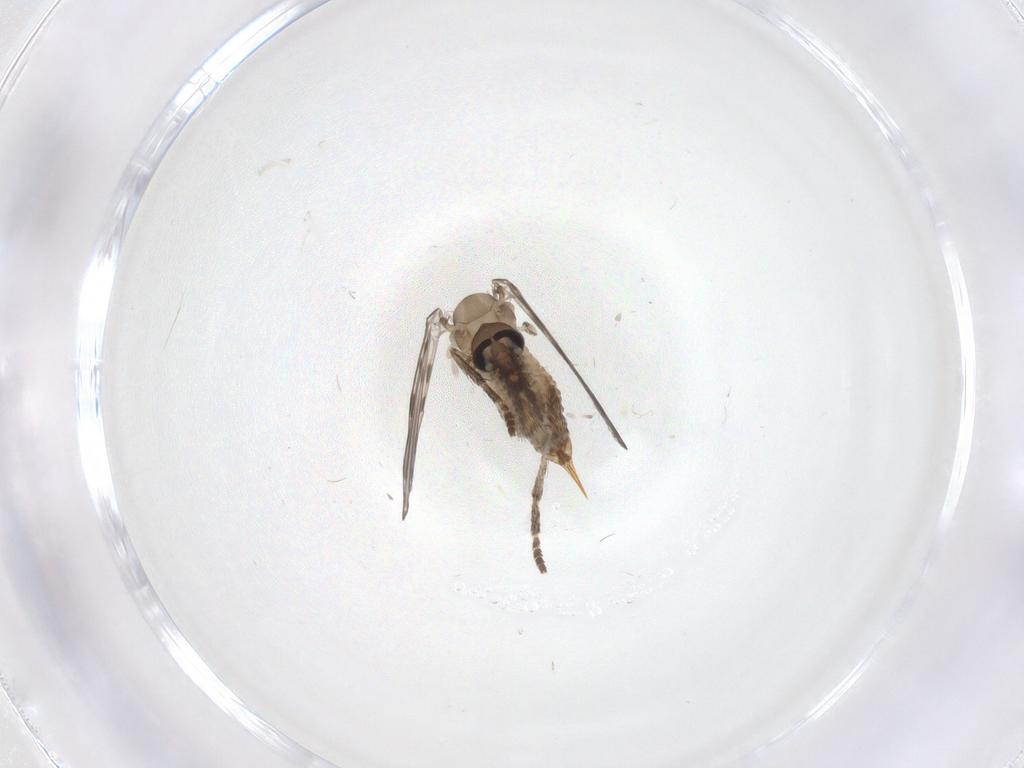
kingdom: Animalia
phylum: Arthropoda
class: Insecta
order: Diptera
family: Psychodidae
